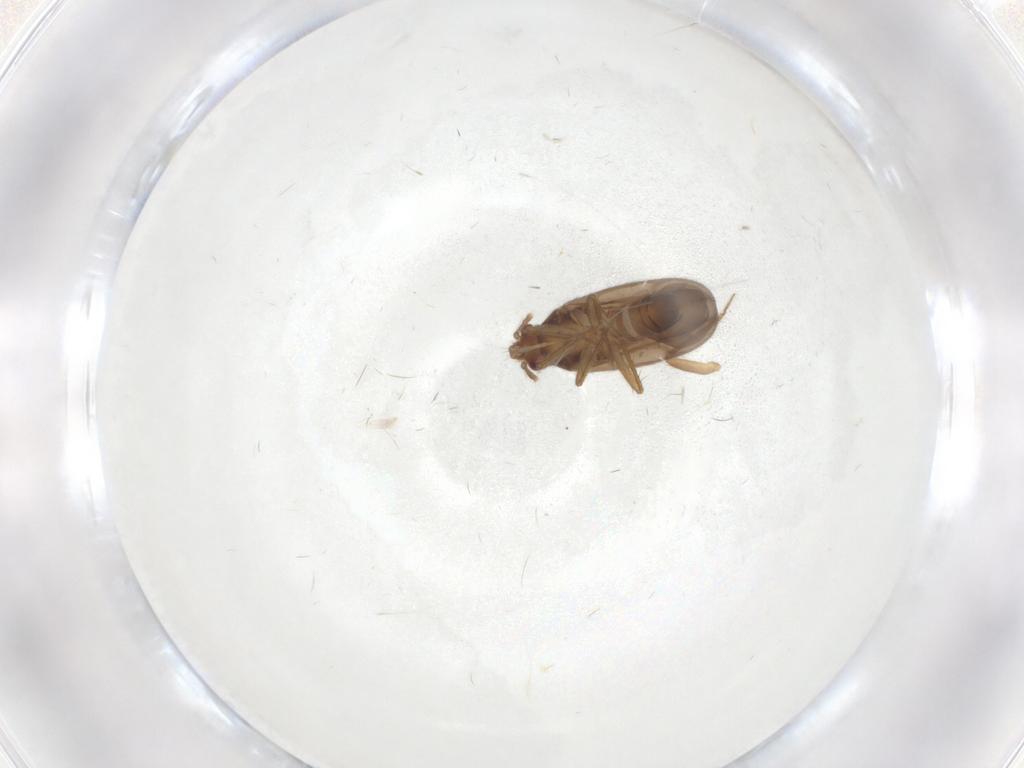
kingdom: Animalia
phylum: Arthropoda
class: Insecta
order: Hemiptera
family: Ceratocombidae
